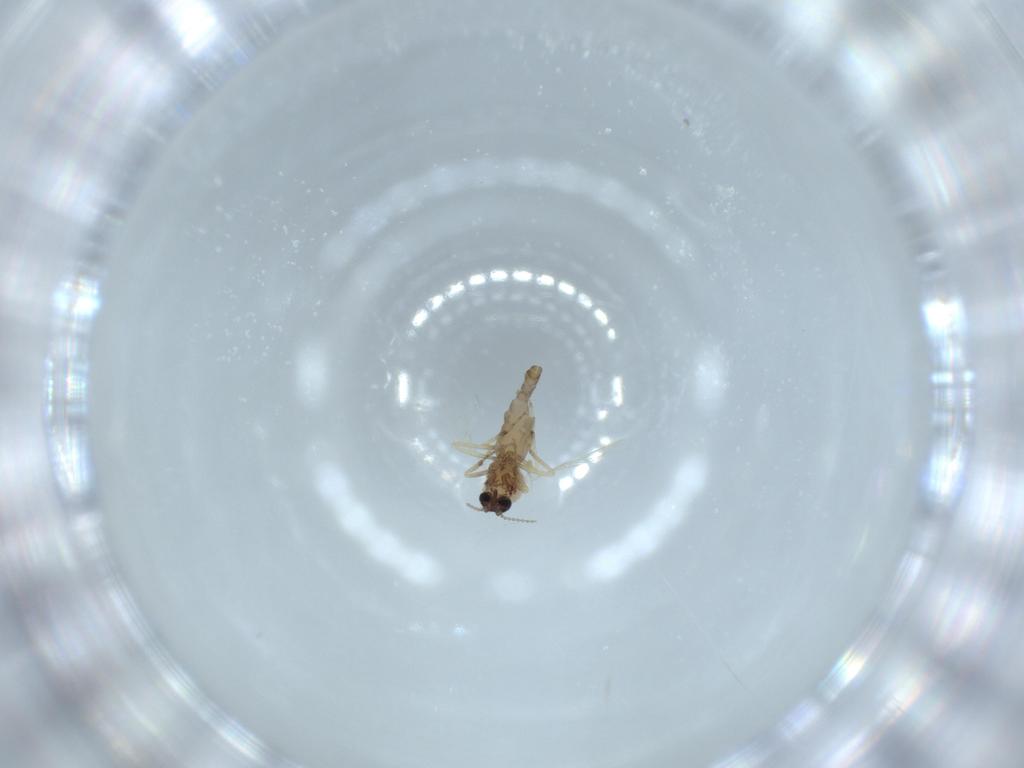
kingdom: Animalia
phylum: Arthropoda
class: Insecta
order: Diptera
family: Ceratopogonidae
